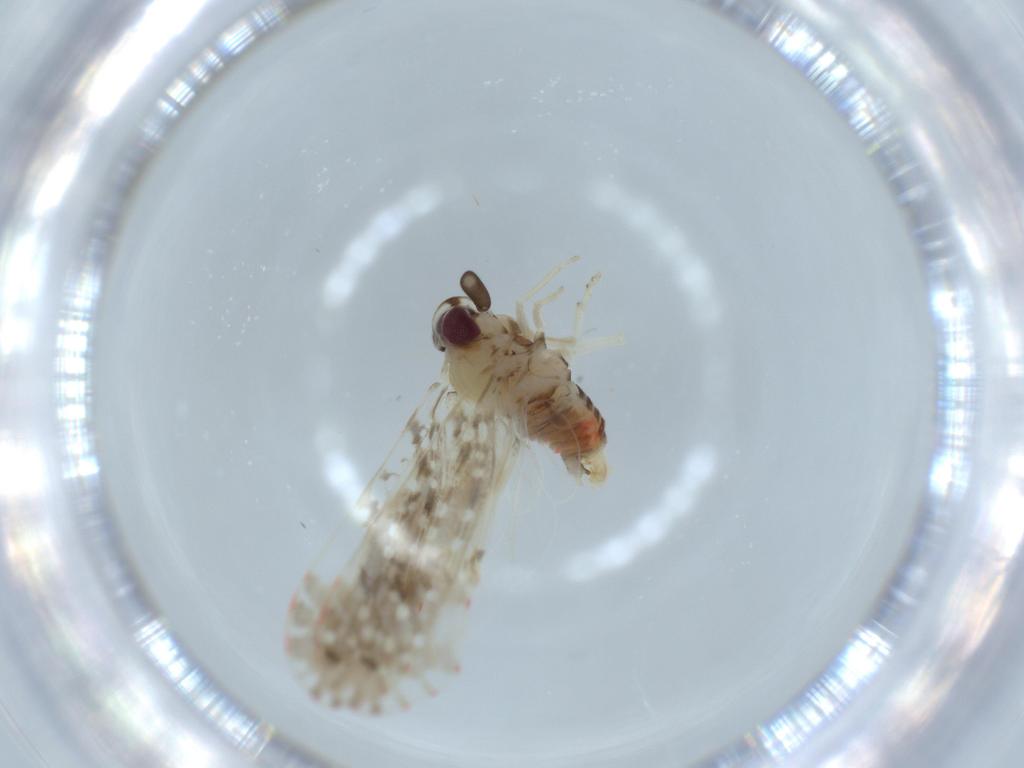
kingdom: Animalia
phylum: Arthropoda
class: Insecta
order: Hemiptera
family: Derbidae
